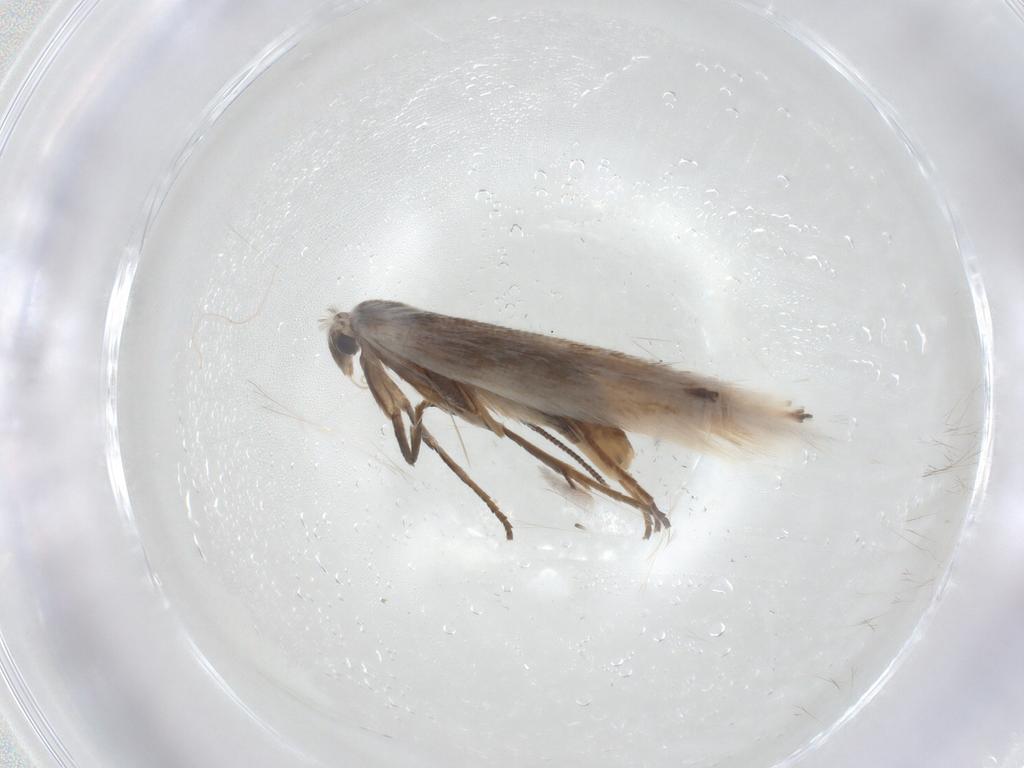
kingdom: Animalia
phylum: Arthropoda
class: Insecta
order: Lepidoptera
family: Bucculatricidae
